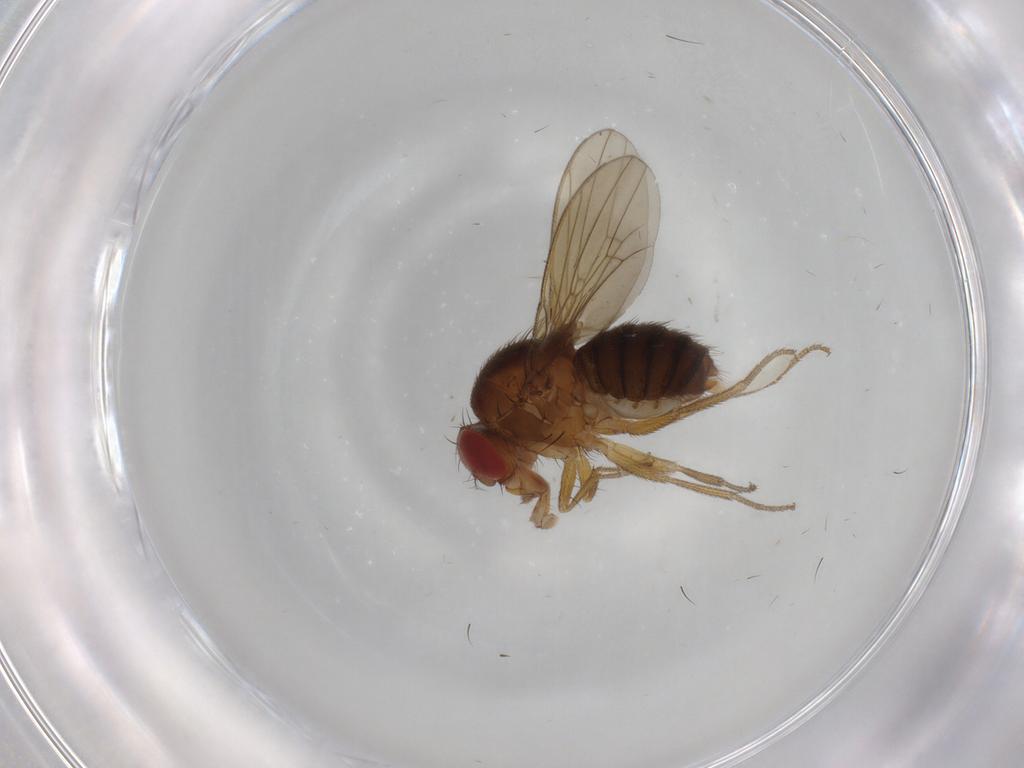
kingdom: Animalia
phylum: Arthropoda
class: Insecta
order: Diptera
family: Drosophilidae
